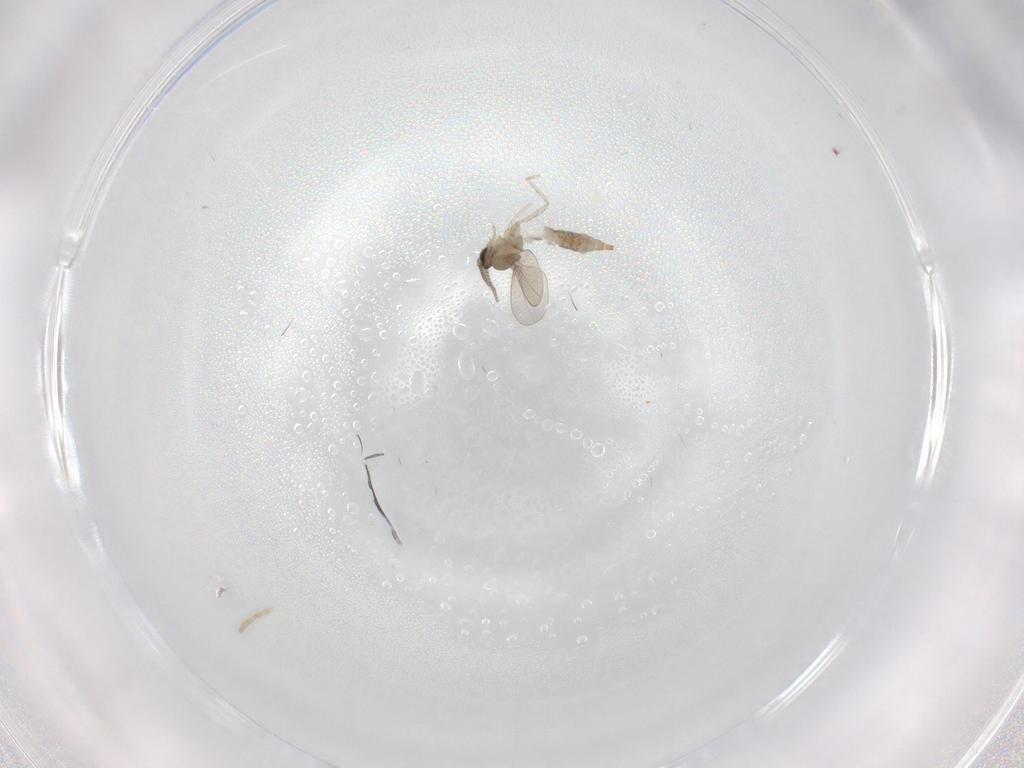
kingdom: Animalia
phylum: Arthropoda
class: Insecta
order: Diptera
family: Cecidomyiidae
